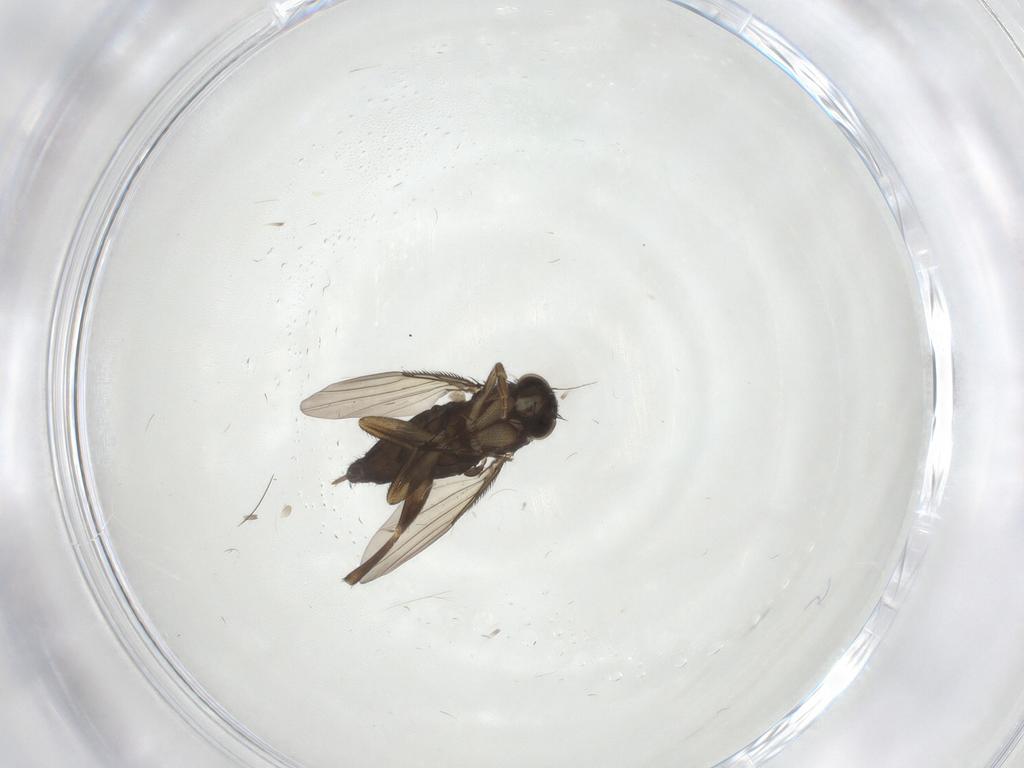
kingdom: Animalia
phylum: Arthropoda
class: Insecta
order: Diptera
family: Phoridae
